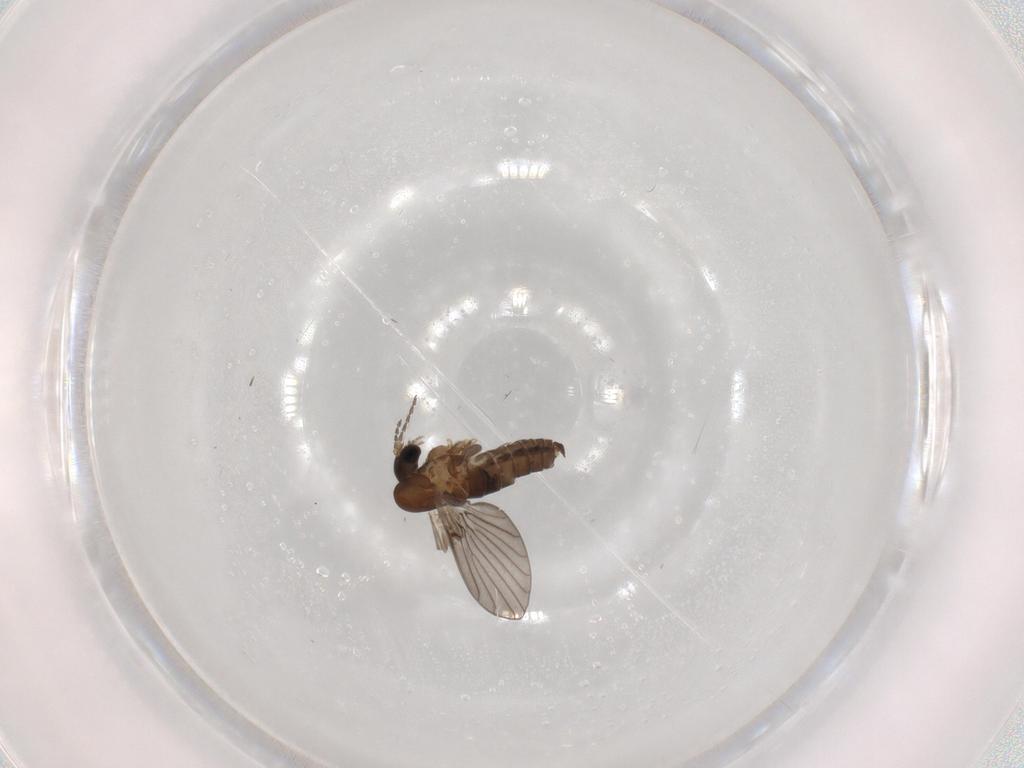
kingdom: Animalia
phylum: Arthropoda
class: Insecta
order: Diptera
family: Psychodidae
